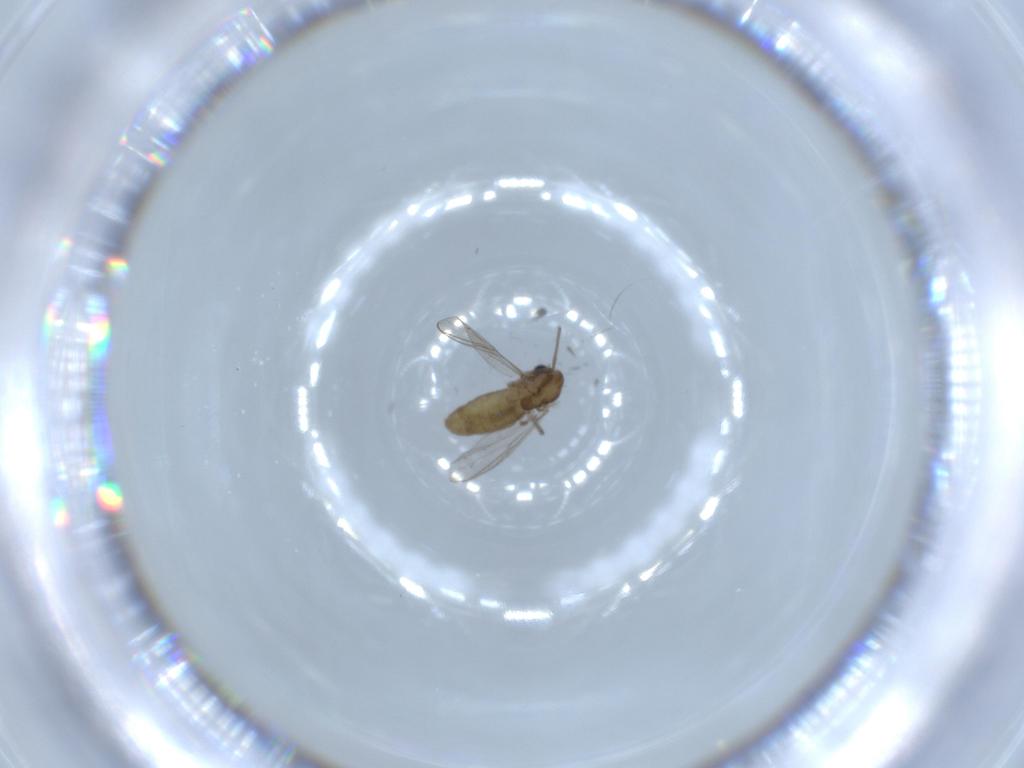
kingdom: Animalia
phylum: Arthropoda
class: Insecta
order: Diptera
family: Chironomidae
